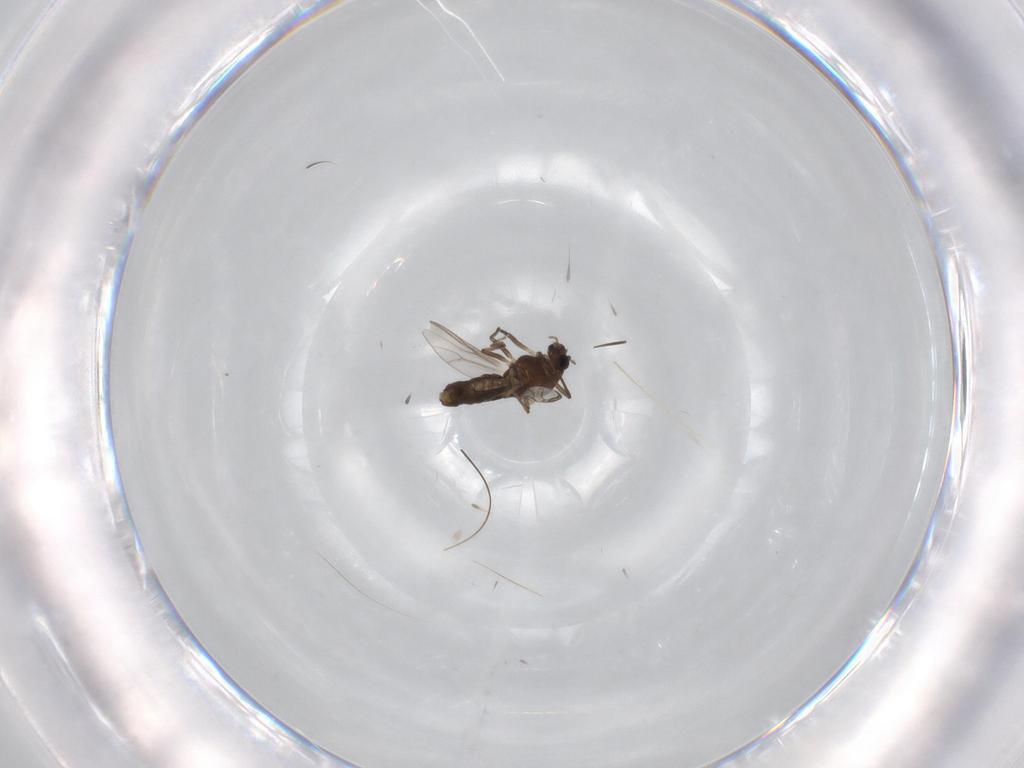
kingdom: Animalia
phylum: Arthropoda
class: Insecta
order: Diptera
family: Chironomidae
